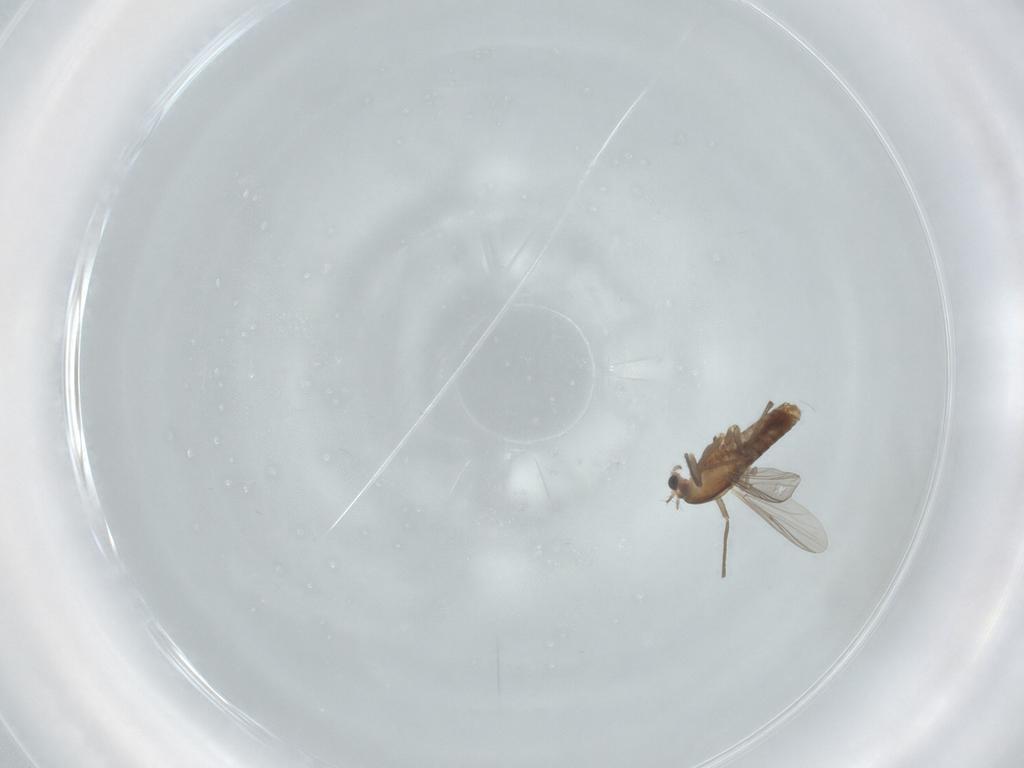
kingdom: Animalia
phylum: Arthropoda
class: Insecta
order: Diptera
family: Chironomidae
